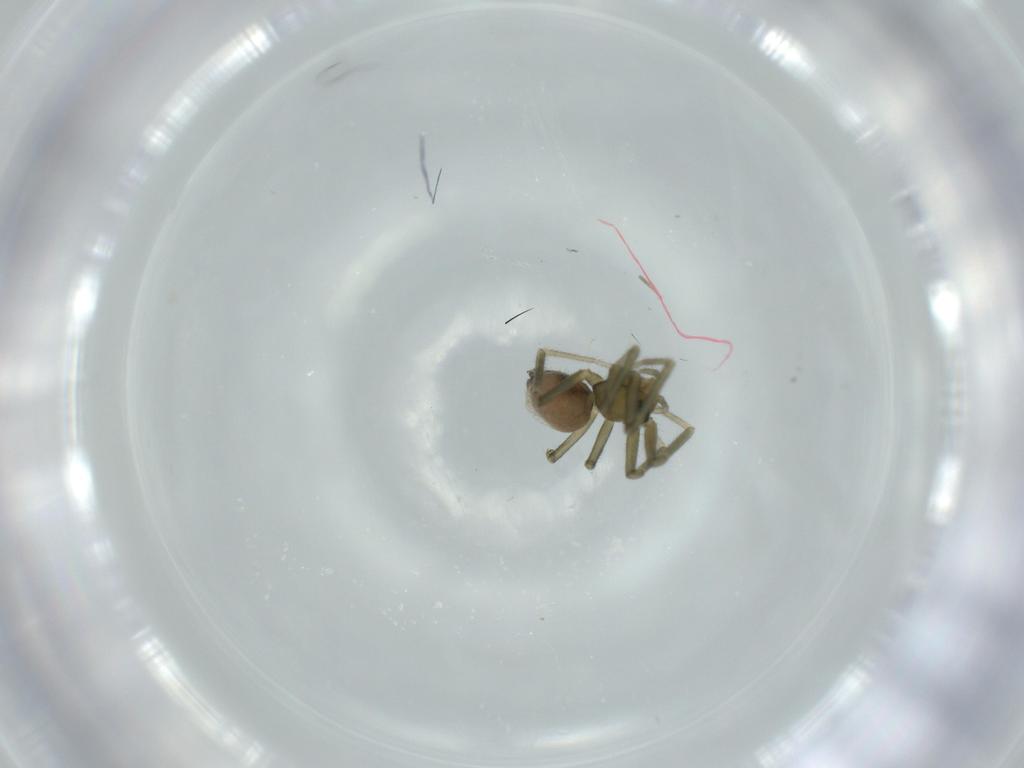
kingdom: Animalia
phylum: Arthropoda
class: Arachnida
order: Araneae
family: Linyphiidae
